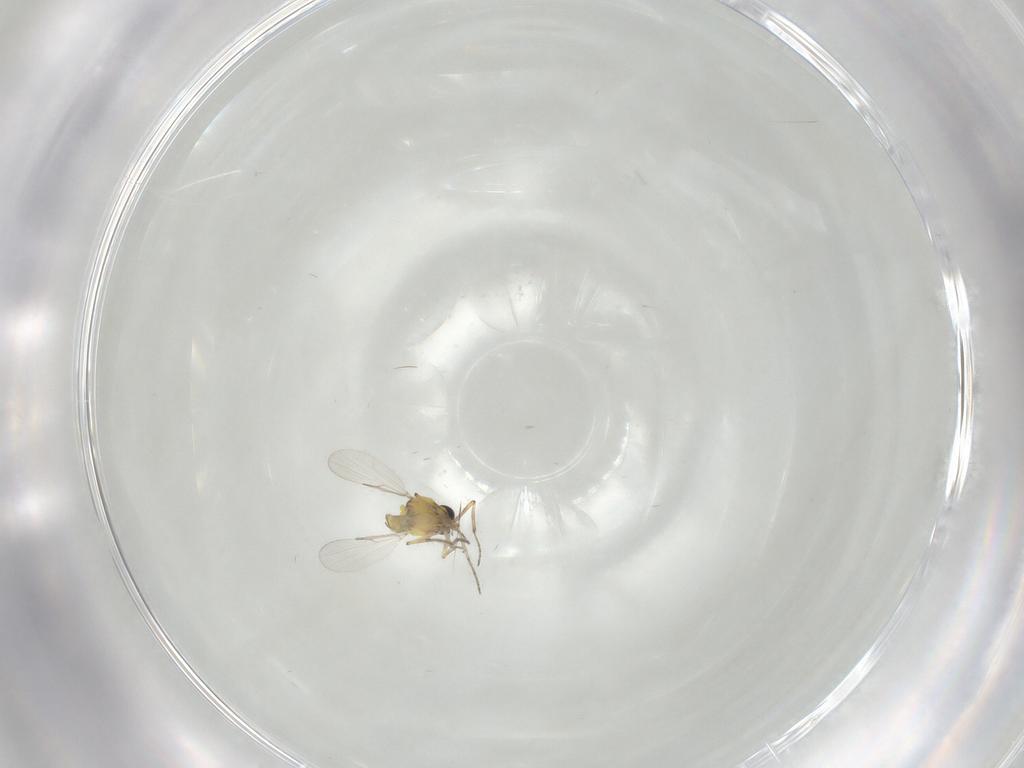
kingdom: Animalia
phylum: Arthropoda
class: Insecta
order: Diptera
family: Ceratopogonidae
